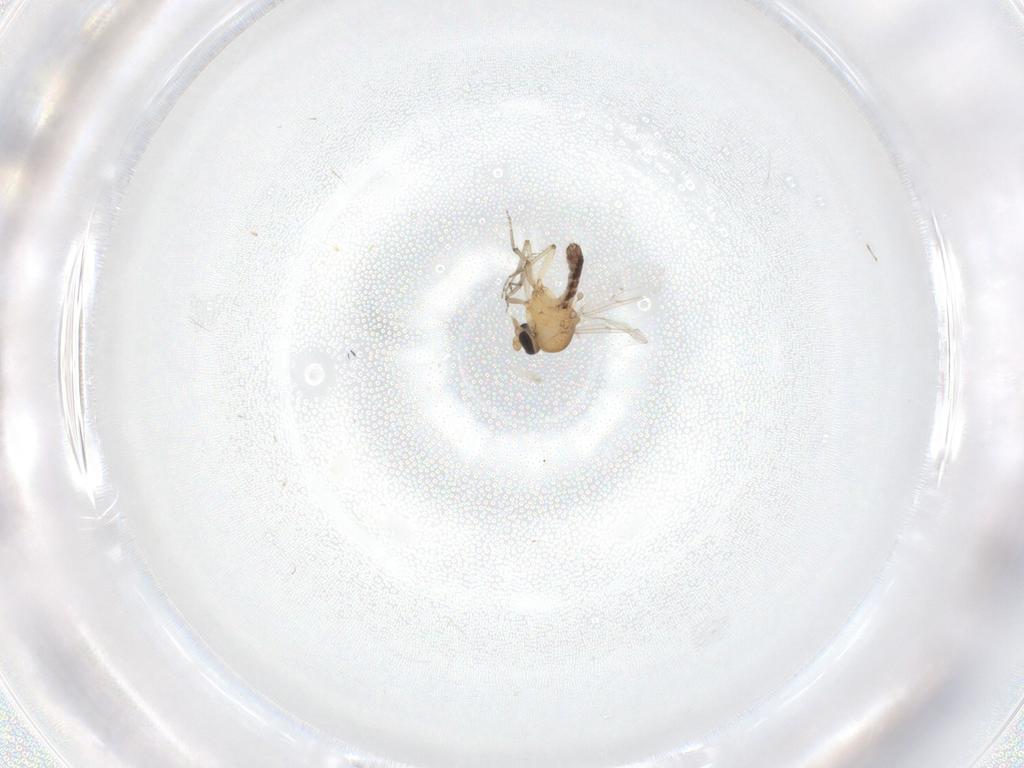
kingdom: Animalia
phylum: Arthropoda
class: Insecta
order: Diptera
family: Ceratopogonidae
